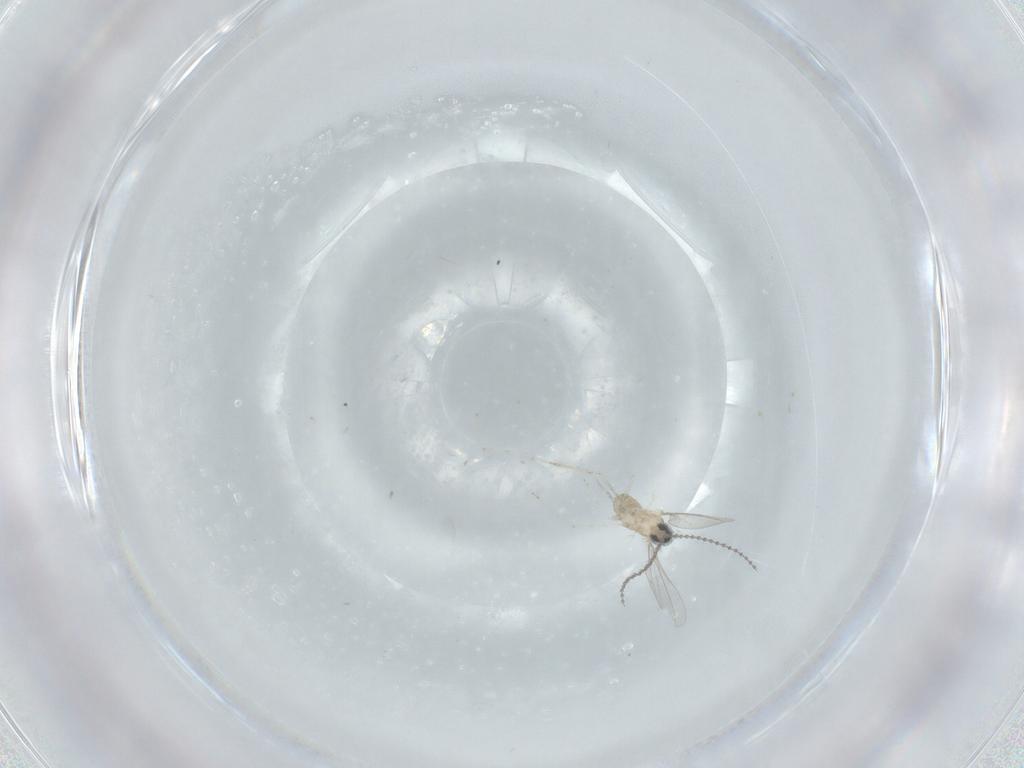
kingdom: Animalia
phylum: Arthropoda
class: Insecta
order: Diptera
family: Cecidomyiidae
